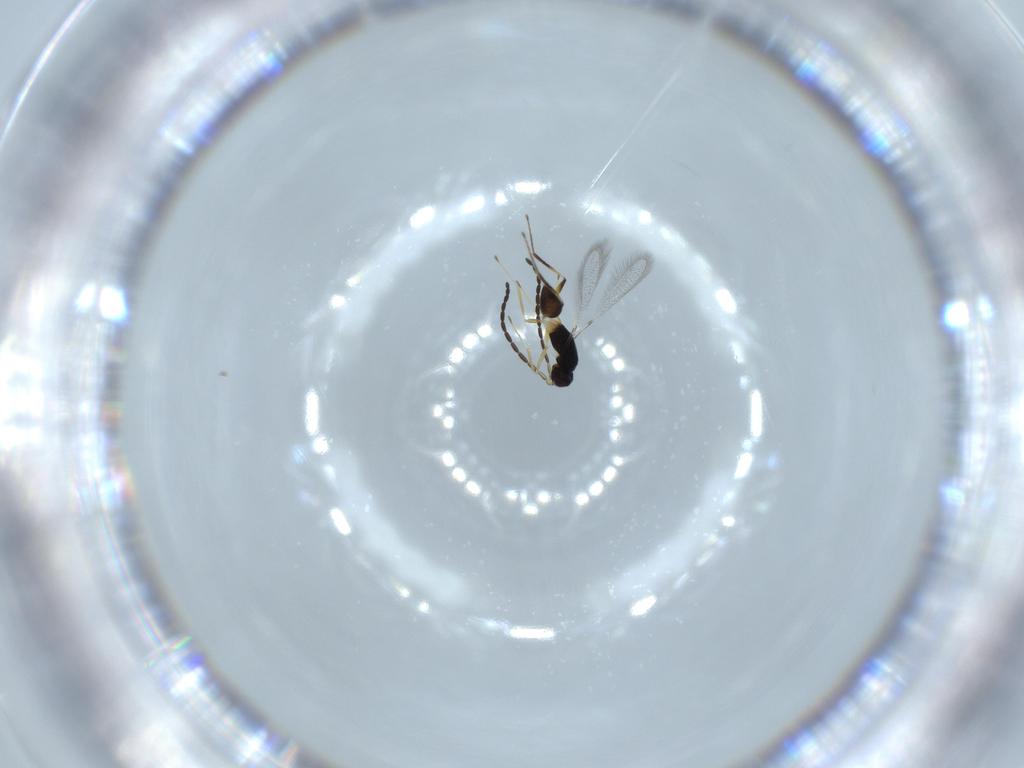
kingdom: Animalia
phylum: Arthropoda
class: Insecta
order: Hymenoptera
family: Mymaridae
